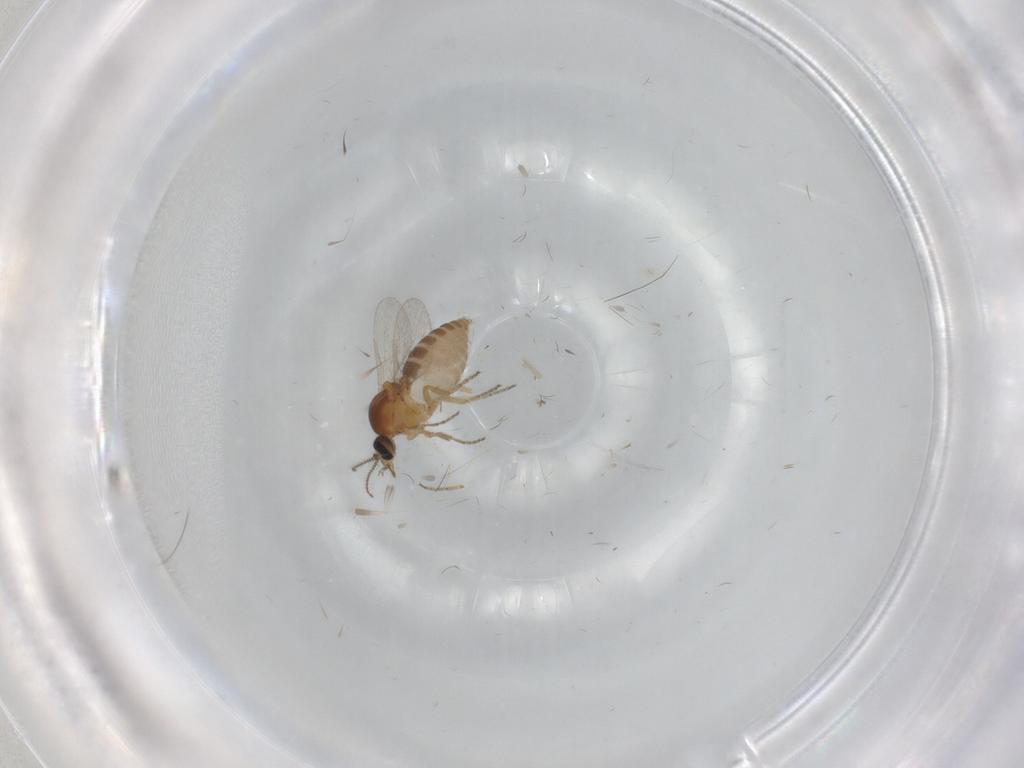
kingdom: Animalia
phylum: Arthropoda
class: Insecta
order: Diptera
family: Ceratopogonidae
